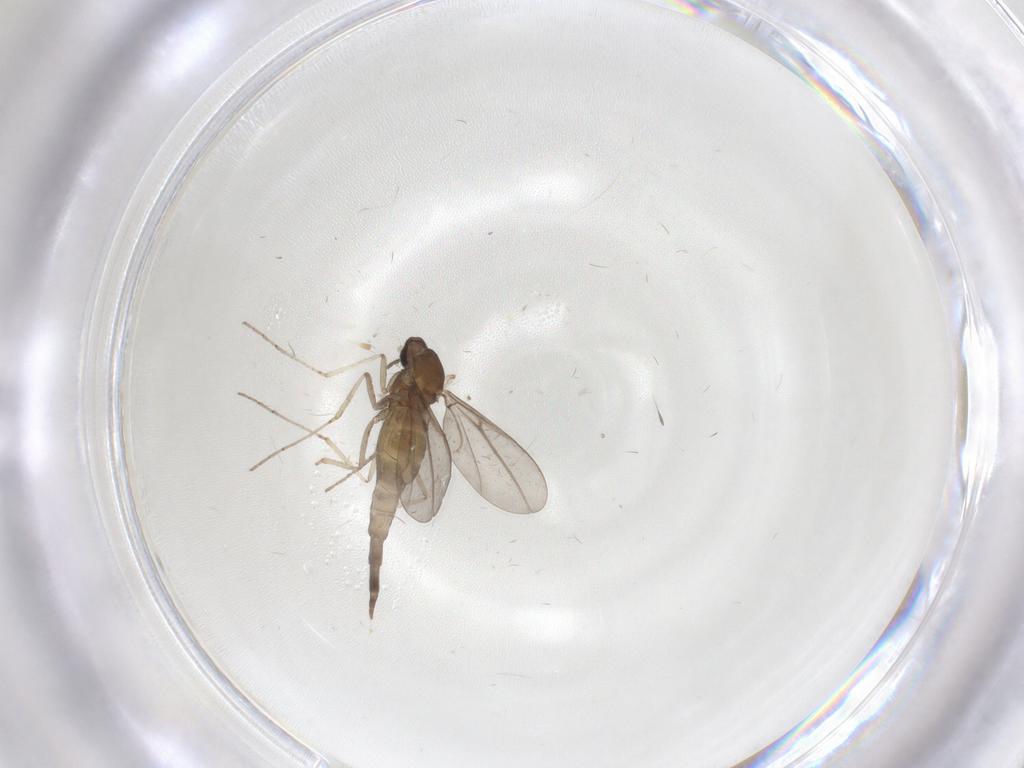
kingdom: Animalia
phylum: Arthropoda
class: Insecta
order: Diptera
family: Cecidomyiidae
